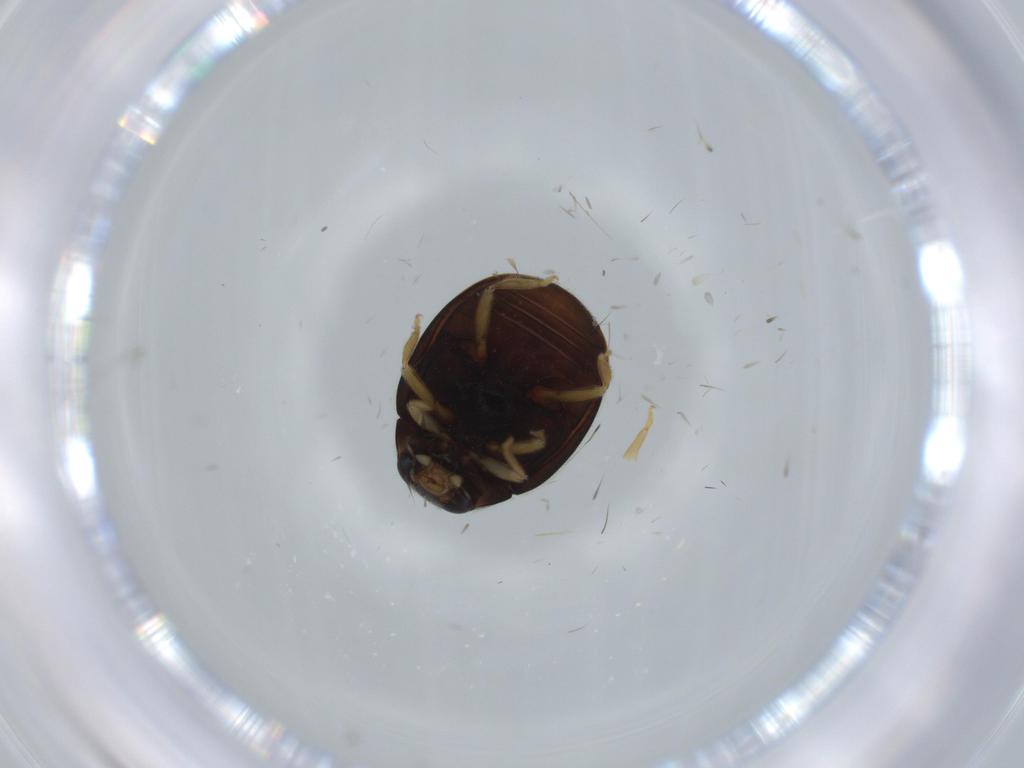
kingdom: Animalia
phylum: Arthropoda
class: Insecta
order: Coleoptera
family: Coccinellidae
